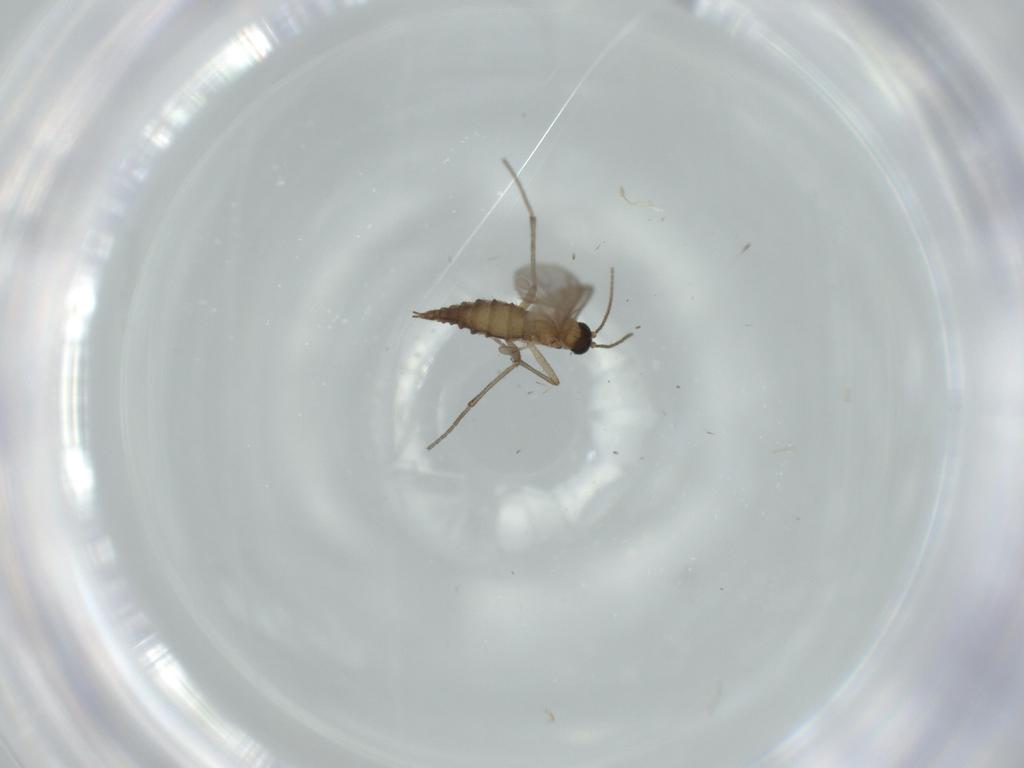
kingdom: Animalia
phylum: Arthropoda
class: Insecta
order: Diptera
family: Sciaridae
